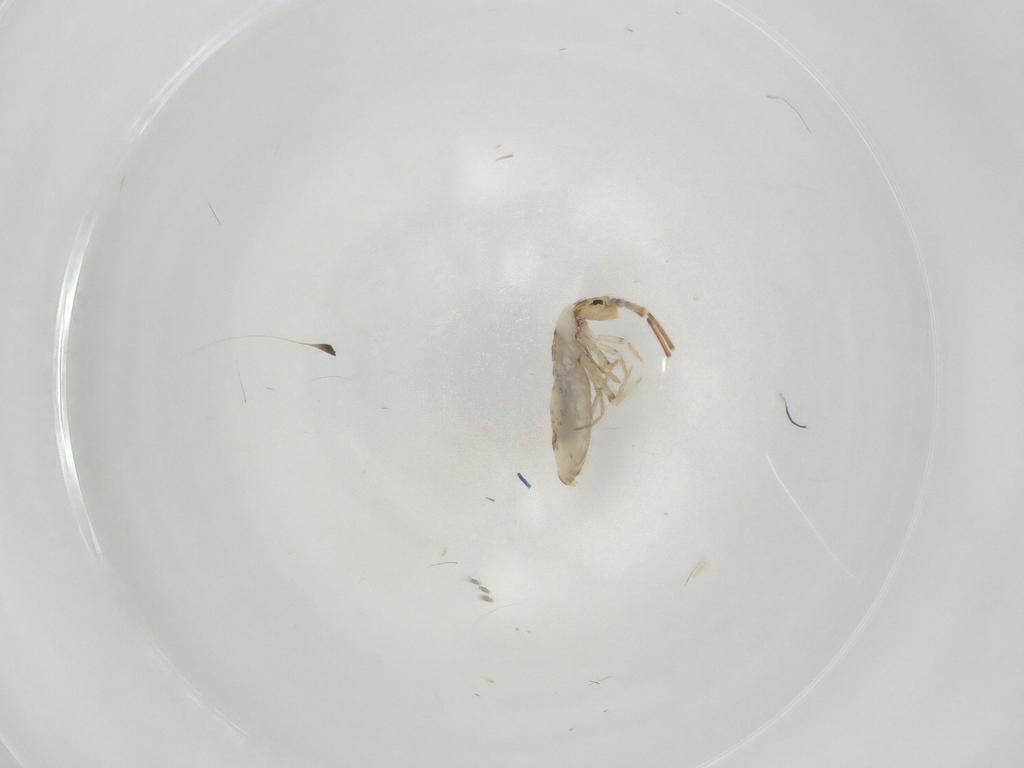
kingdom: Animalia
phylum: Arthropoda
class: Collembola
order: Entomobryomorpha
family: Entomobryidae
